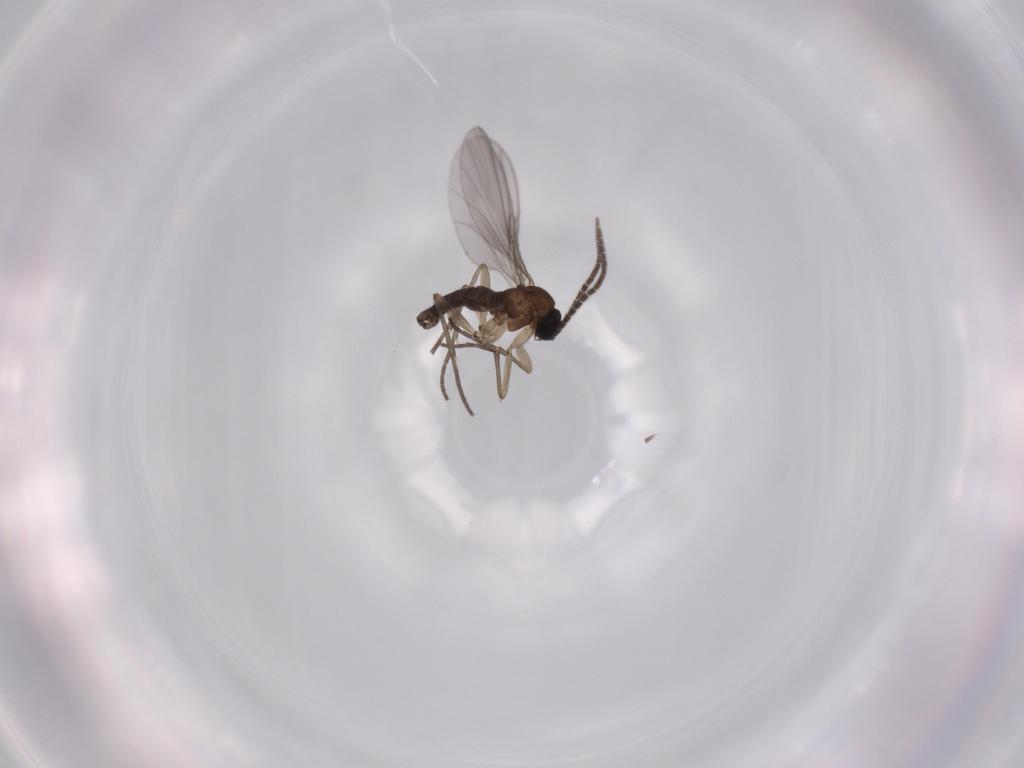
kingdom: Animalia
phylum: Arthropoda
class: Insecta
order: Diptera
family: Sciaridae
